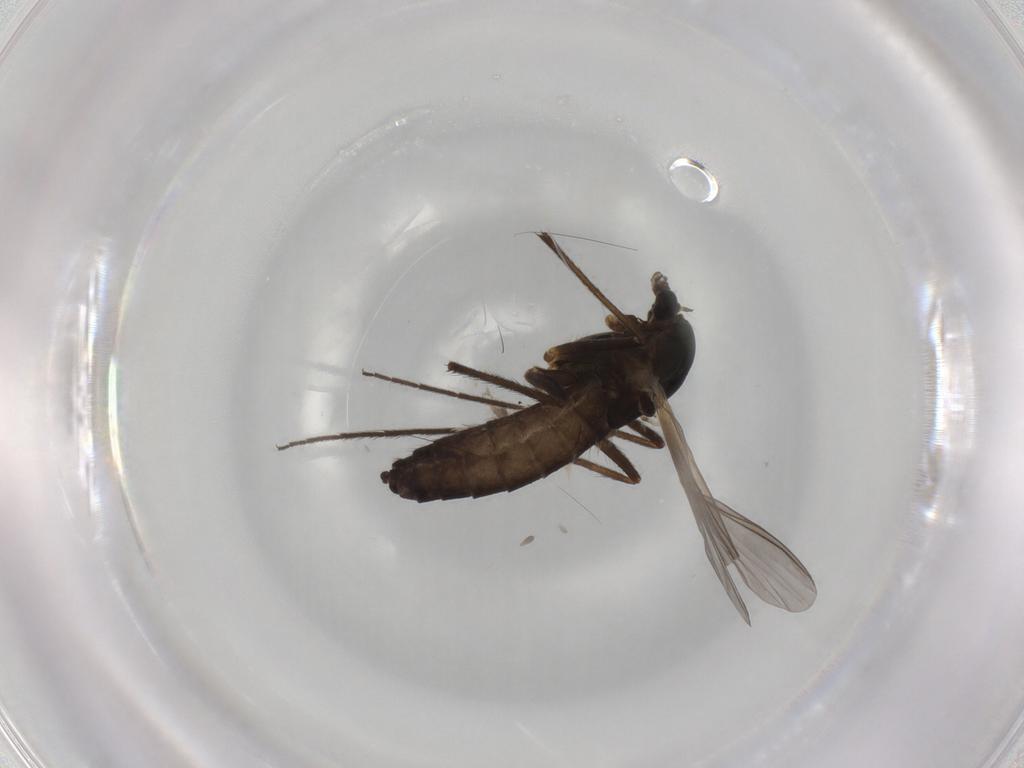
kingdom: Animalia
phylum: Arthropoda
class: Insecta
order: Diptera
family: Chironomidae
